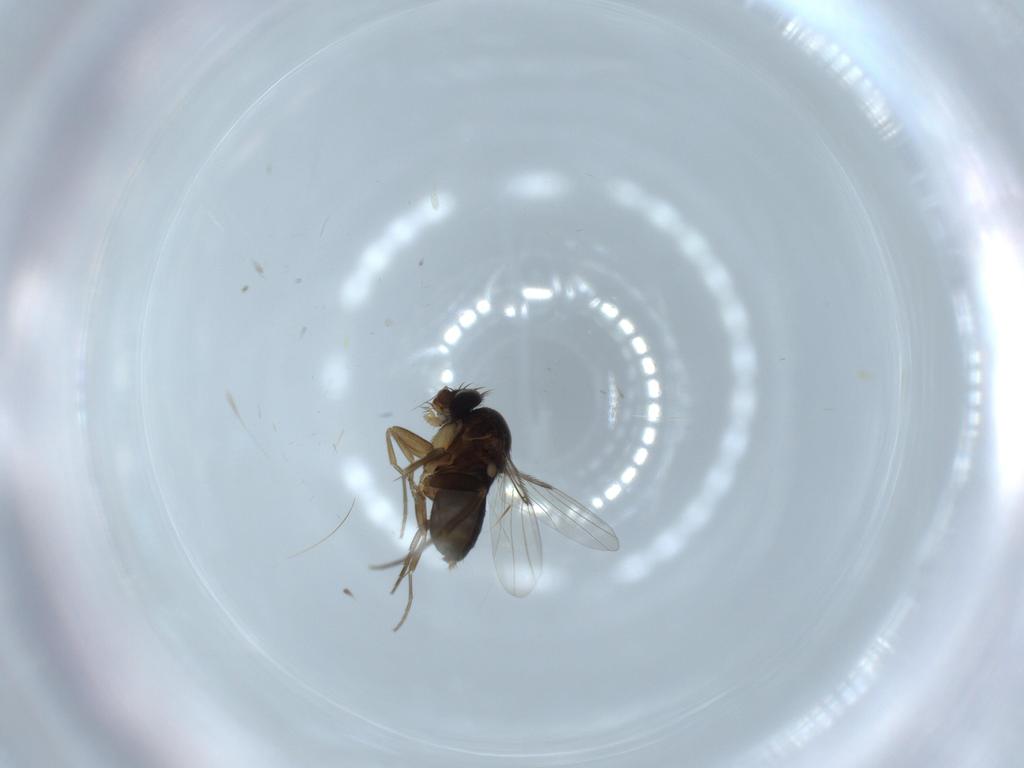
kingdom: Animalia
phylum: Arthropoda
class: Insecta
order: Diptera
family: Phoridae
